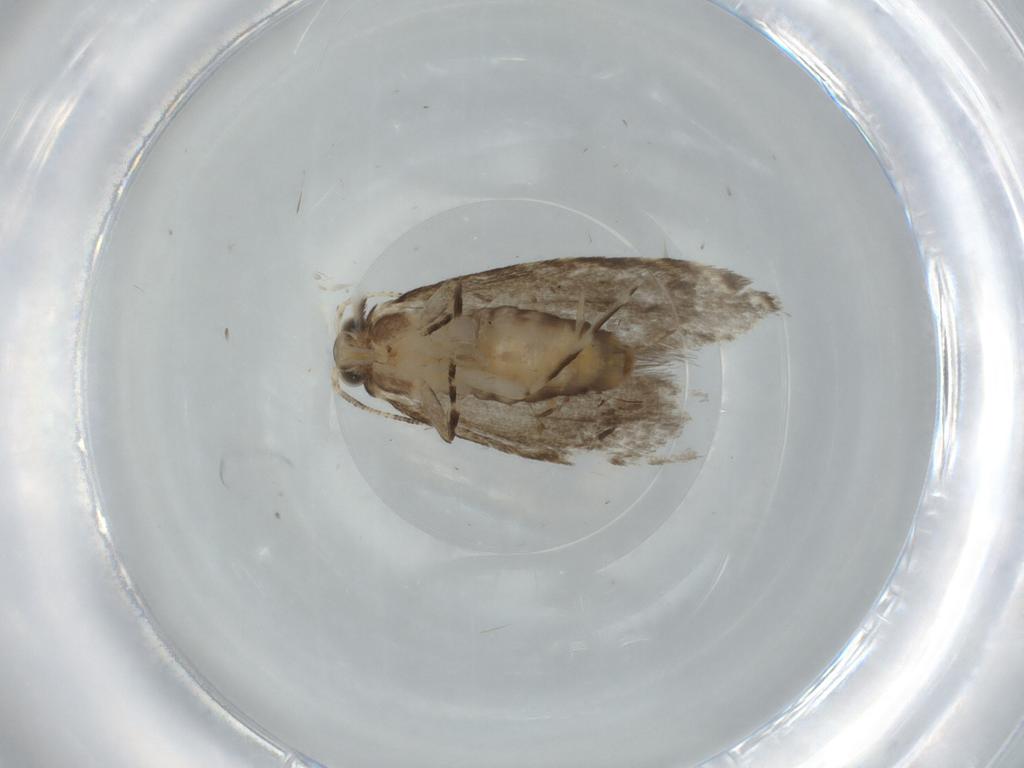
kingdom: Animalia
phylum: Arthropoda
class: Insecta
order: Lepidoptera
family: Tineidae
